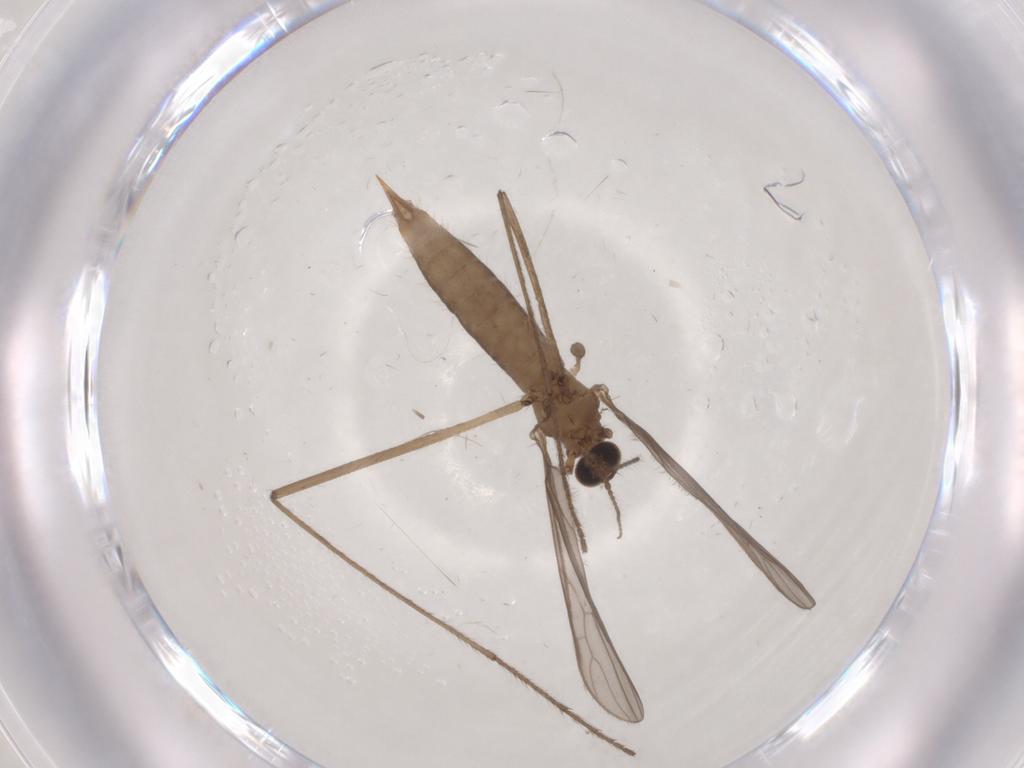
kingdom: Animalia
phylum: Arthropoda
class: Insecta
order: Diptera
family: Limoniidae
